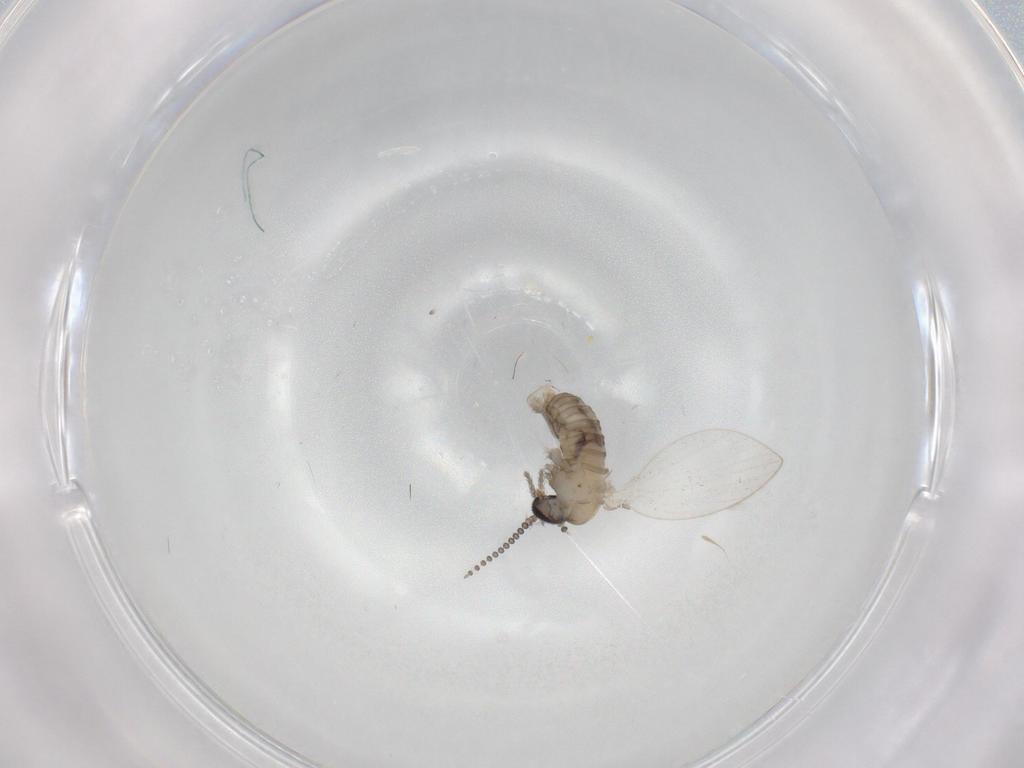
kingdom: Animalia
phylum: Arthropoda
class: Insecta
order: Diptera
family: Psychodidae
